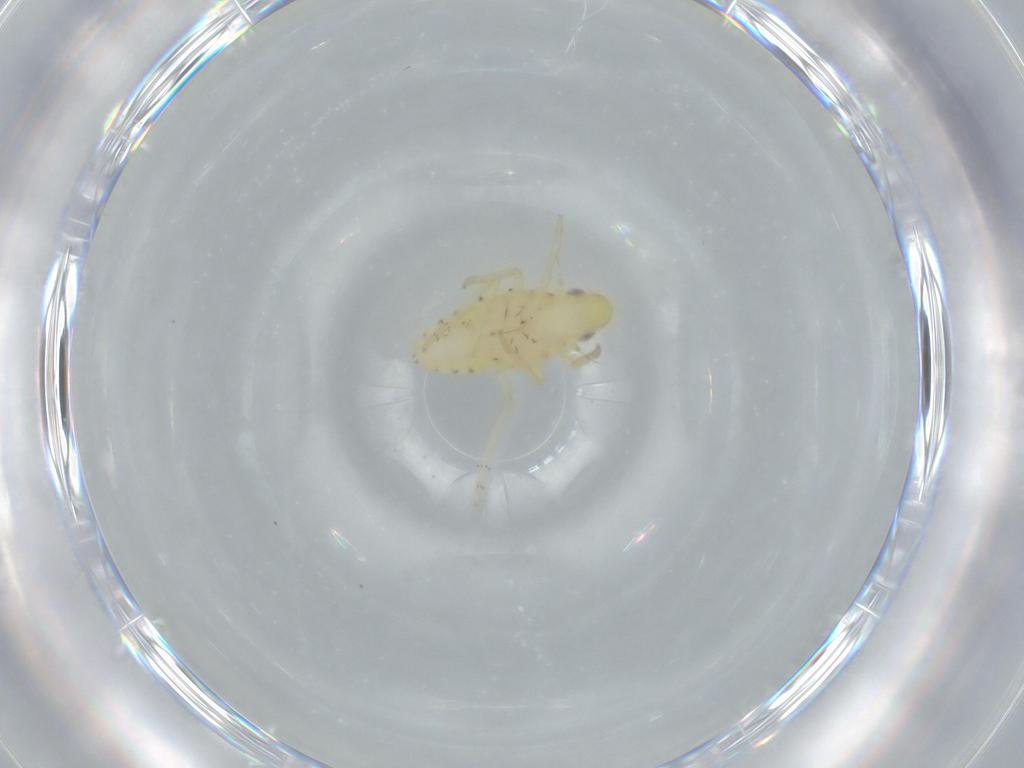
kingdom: Animalia
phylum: Arthropoda
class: Insecta
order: Hemiptera
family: Tropiduchidae
